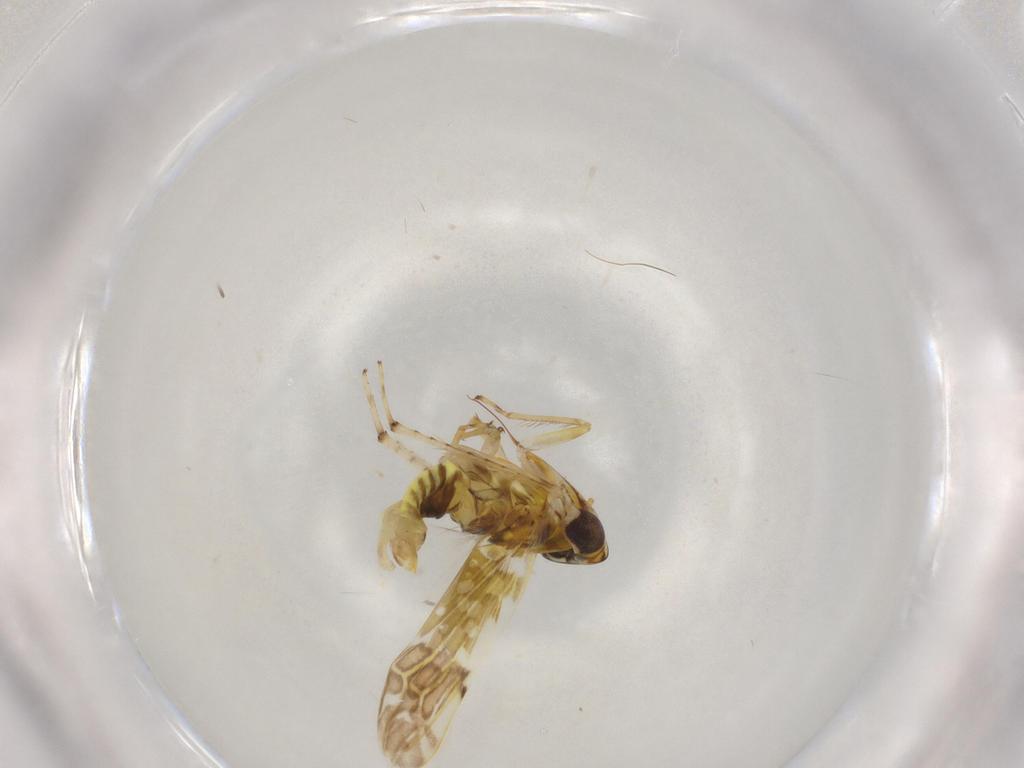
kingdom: Animalia
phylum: Arthropoda
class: Insecta
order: Hemiptera
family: Cicadellidae
